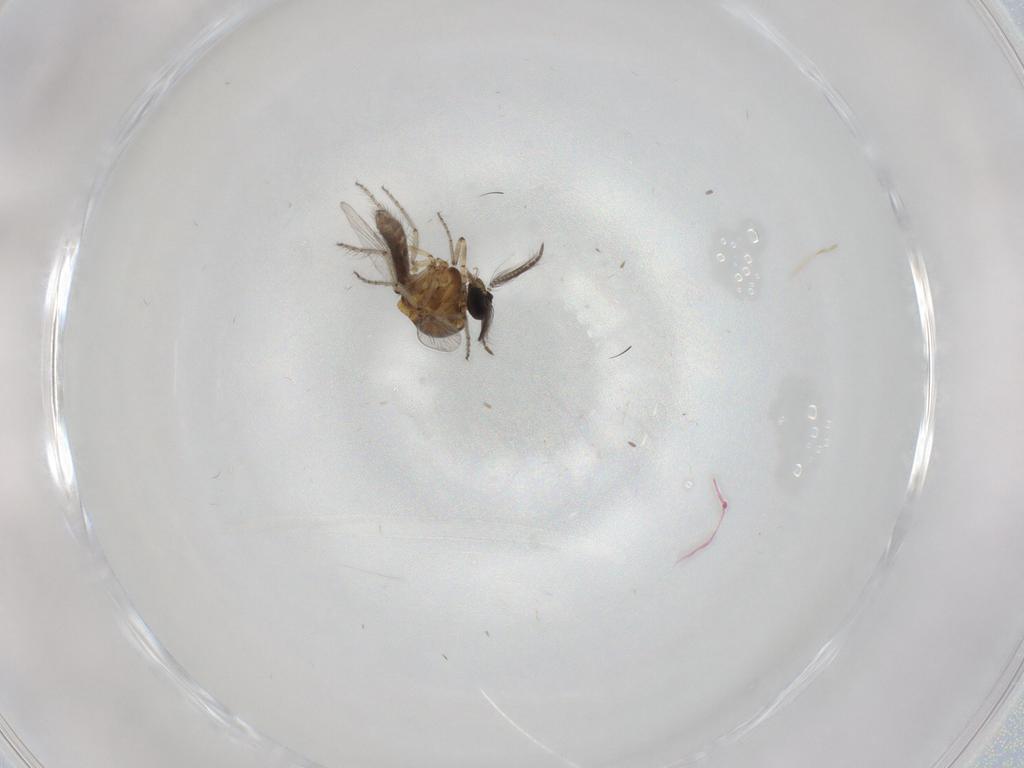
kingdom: Animalia
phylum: Arthropoda
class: Insecta
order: Diptera
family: Ceratopogonidae
